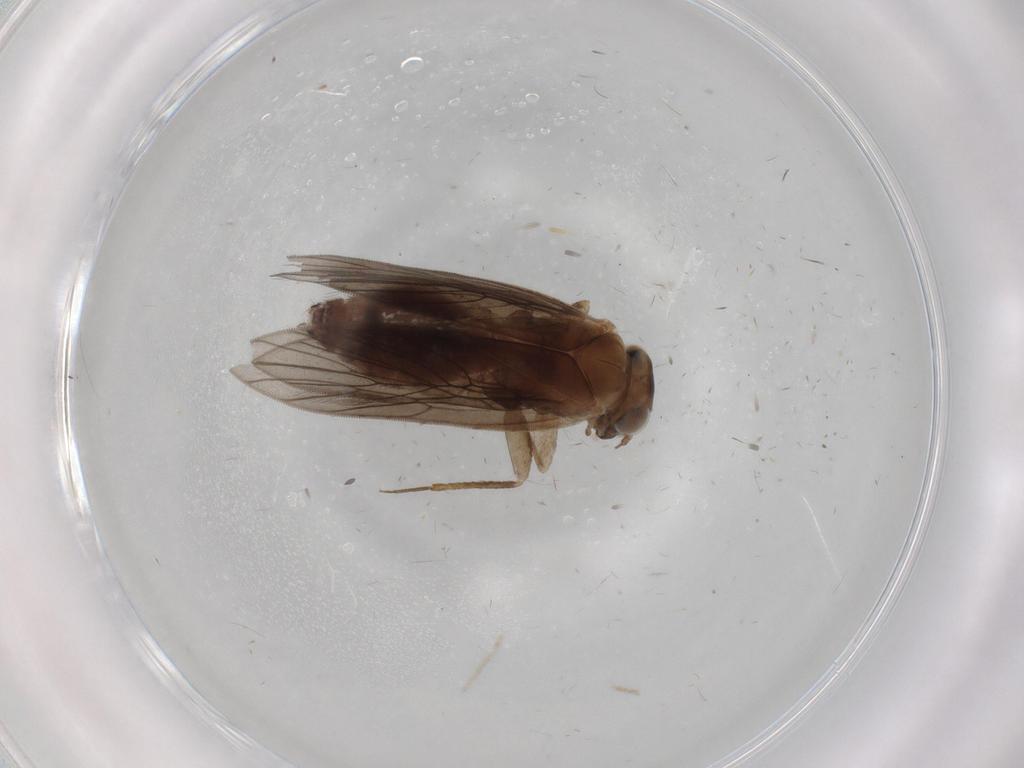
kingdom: Animalia
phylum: Arthropoda
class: Insecta
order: Psocodea
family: Lepidopsocidae
